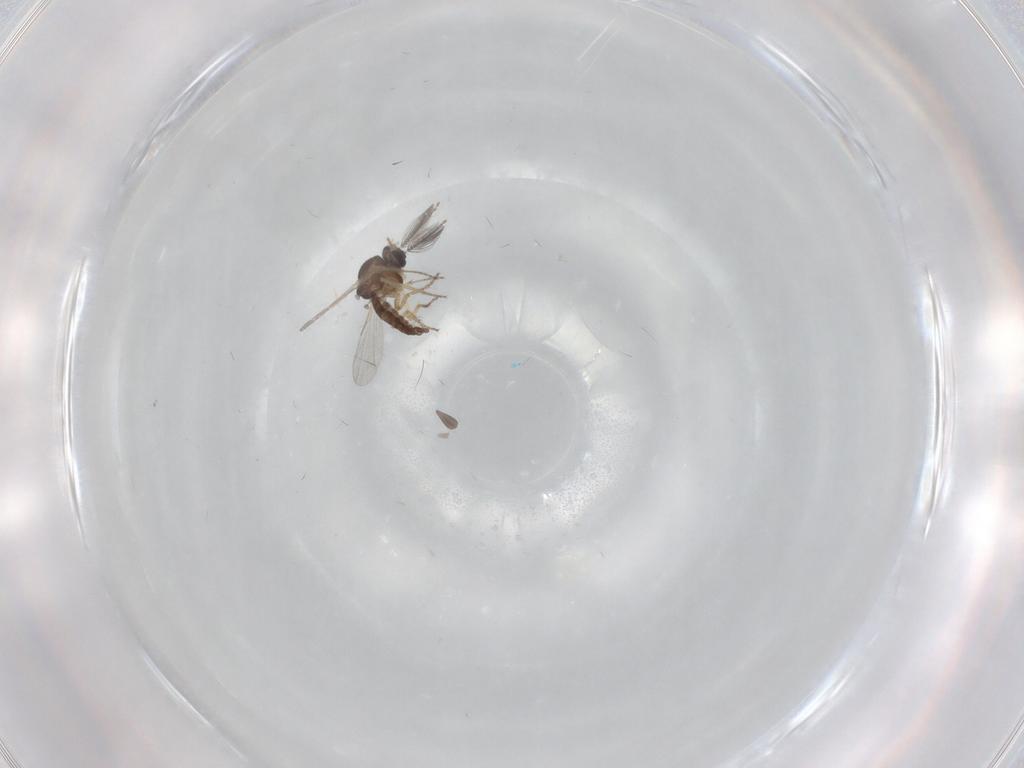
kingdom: Animalia
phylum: Arthropoda
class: Insecta
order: Diptera
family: Ceratopogonidae
